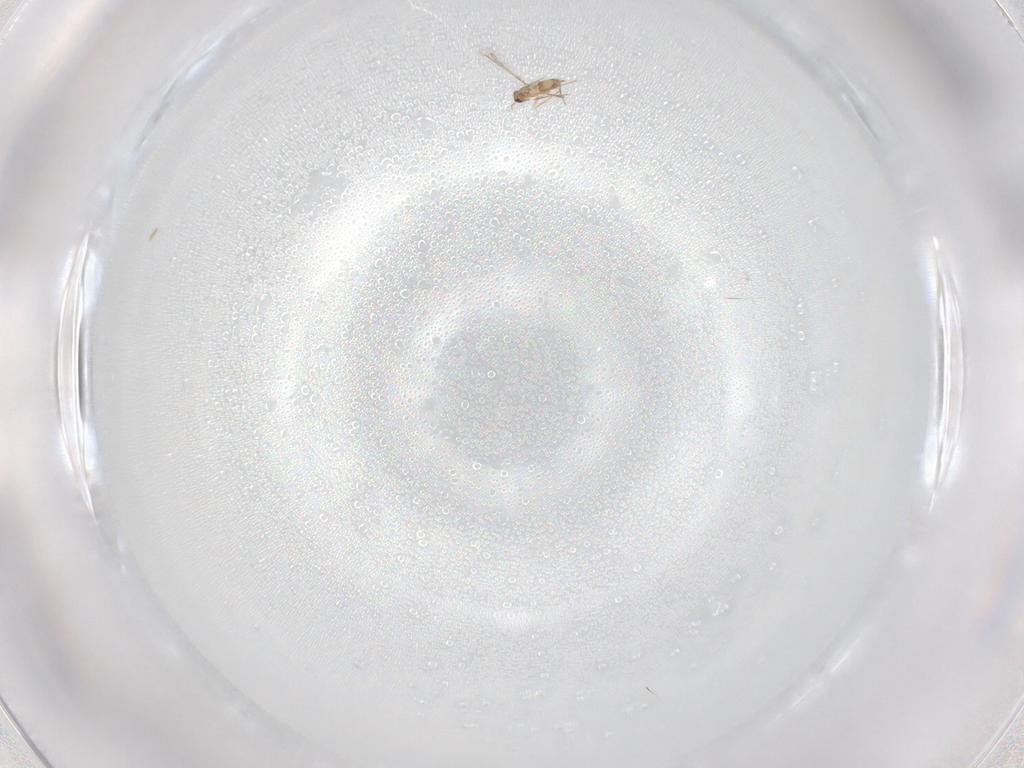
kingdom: Animalia
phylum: Arthropoda
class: Insecta
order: Hymenoptera
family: Mymaridae
